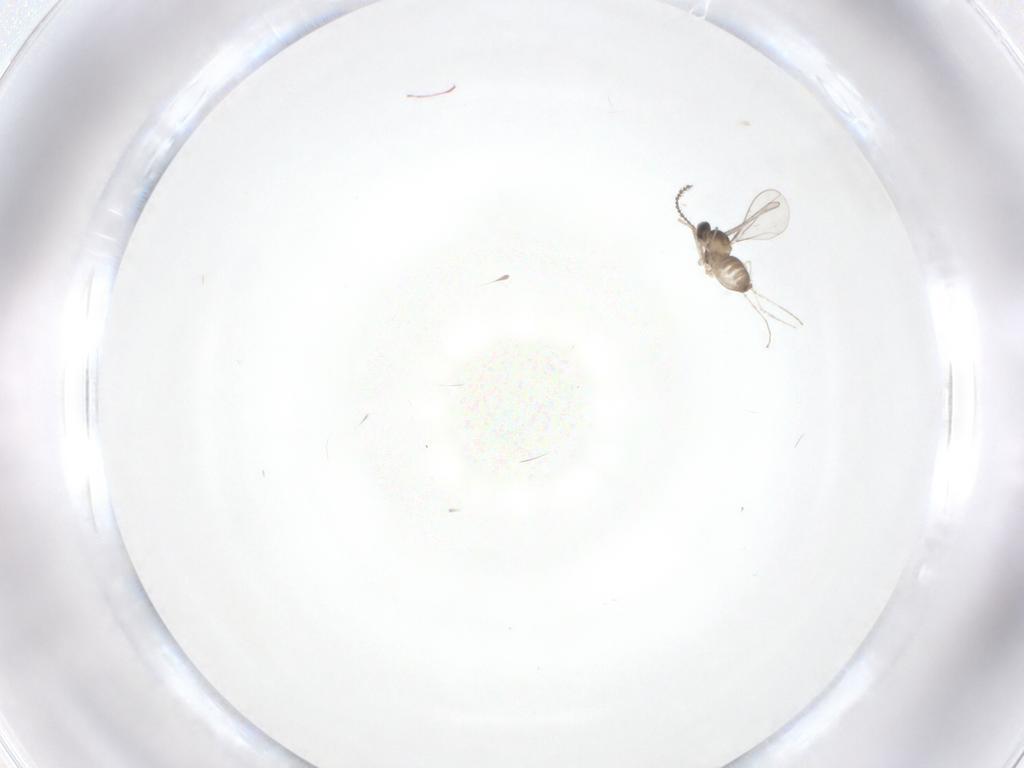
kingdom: Animalia
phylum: Arthropoda
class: Insecta
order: Diptera
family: Cecidomyiidae
